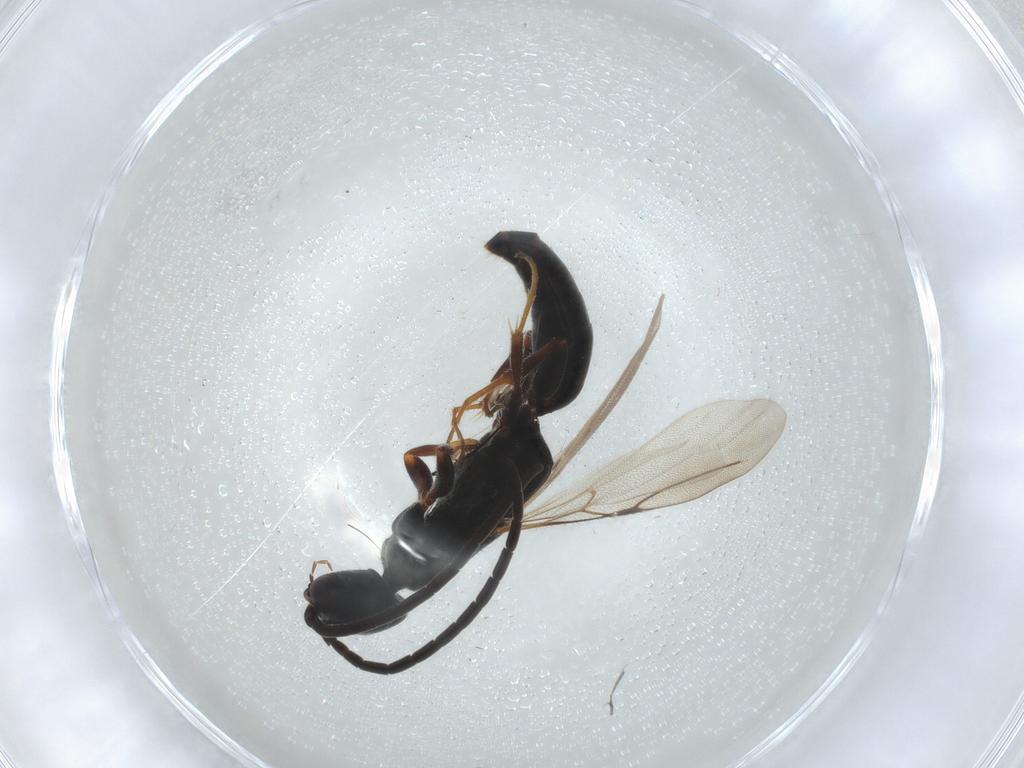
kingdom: Animalia
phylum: Arthropoda
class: Insecta
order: Hymenoptera
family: Bethylidae
